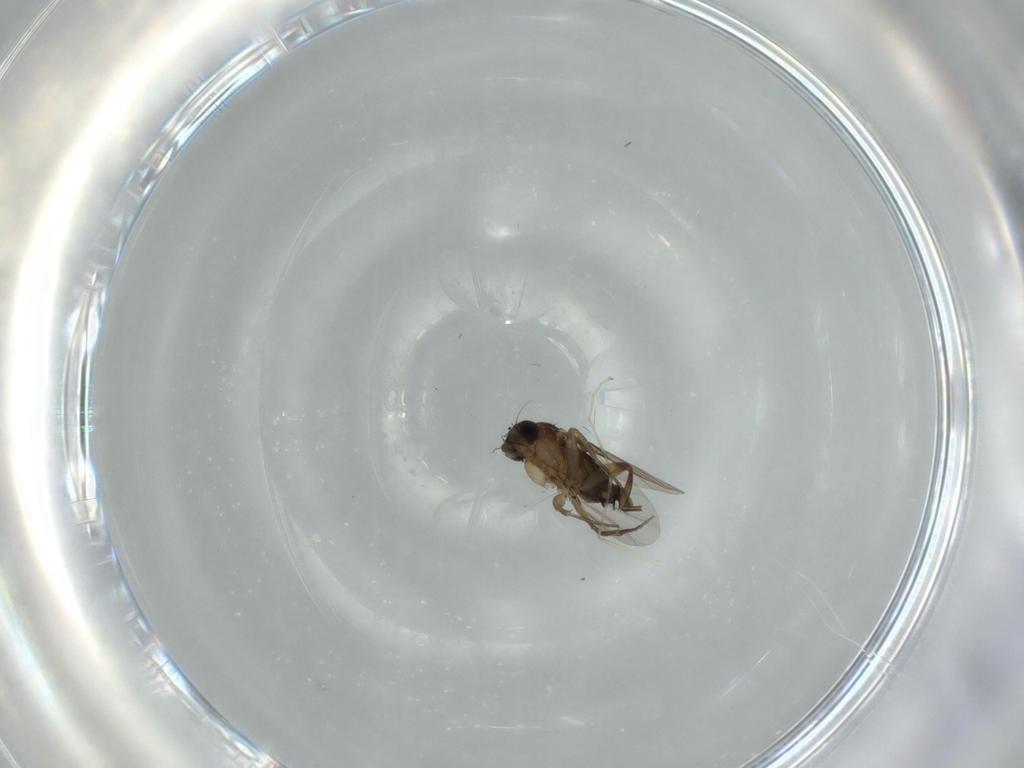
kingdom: Animalia
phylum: Arthropoda
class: Insecta
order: Diptera
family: Phoridae
